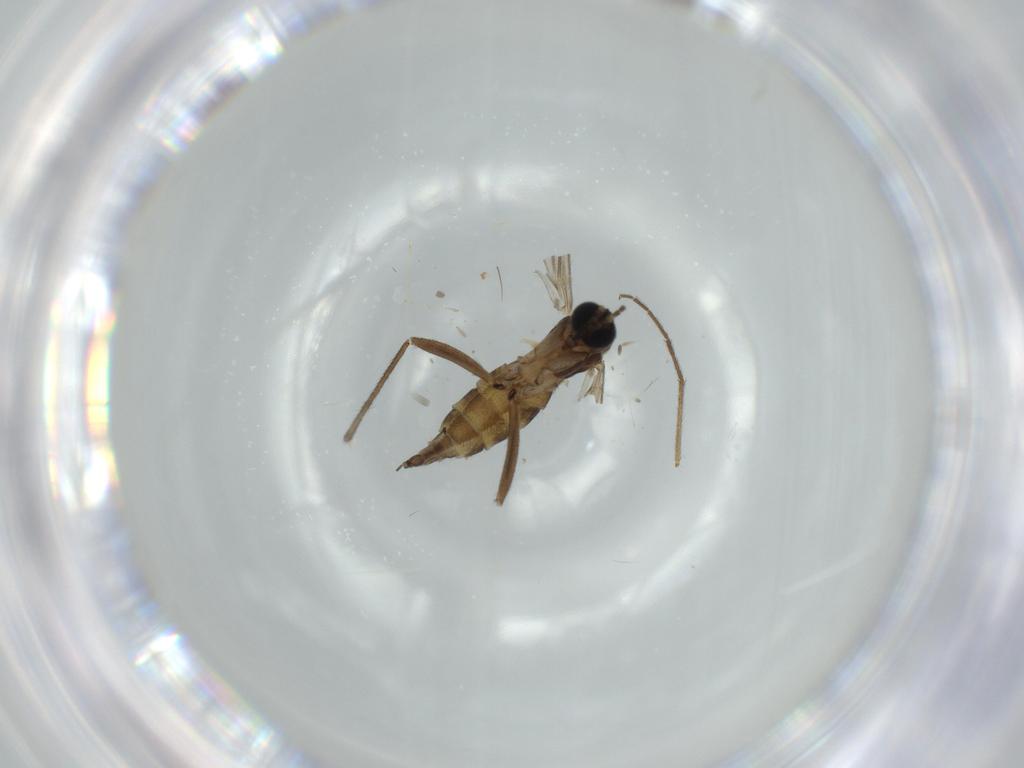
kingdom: Animalia
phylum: Arthropoda
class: Insecta
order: Diptera
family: Sciaridae
